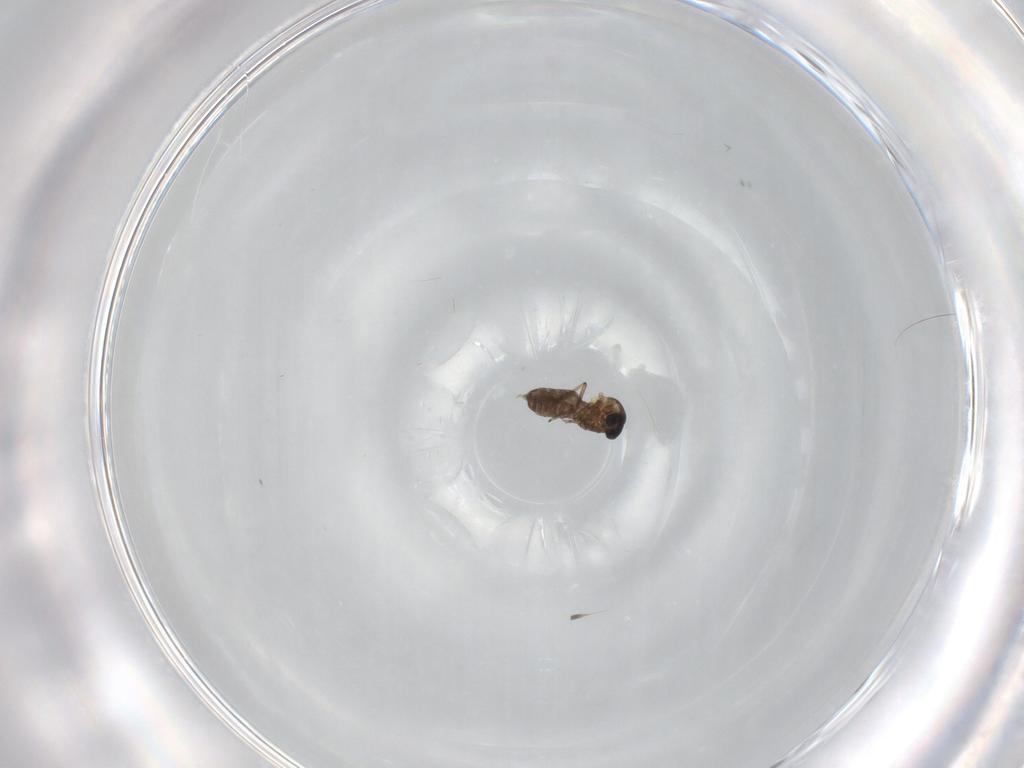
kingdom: Animalia
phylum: Arthropoda
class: Insecta
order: Diptera
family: Ceratopogonidae
